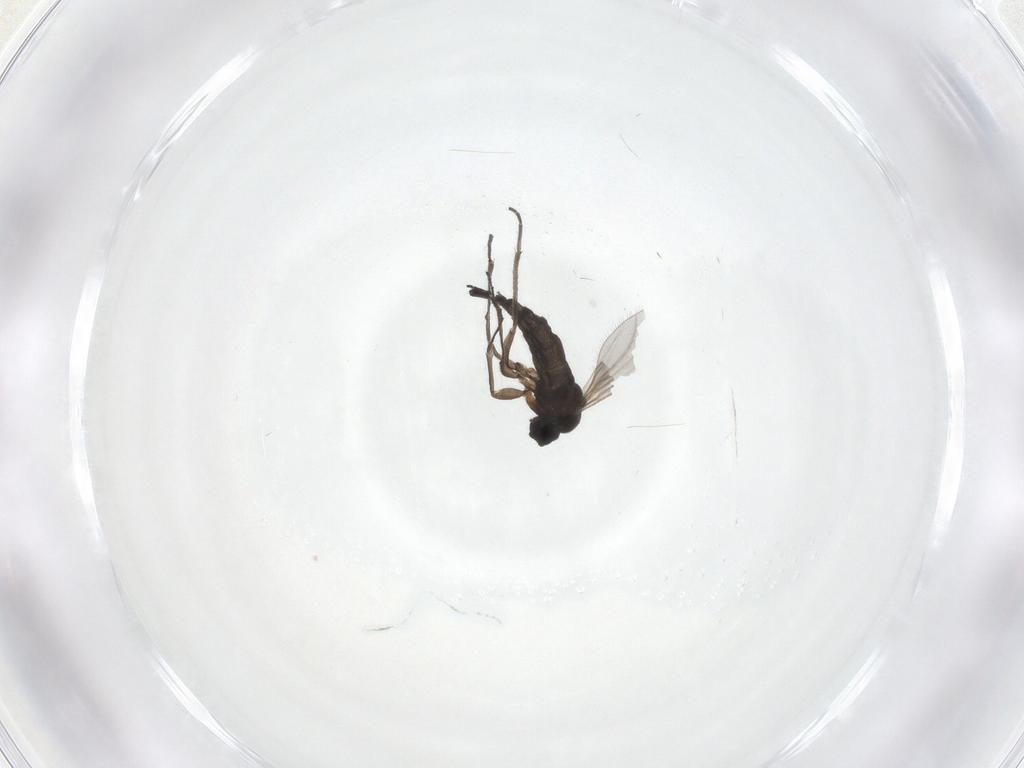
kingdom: Animalia
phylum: Arthropoda
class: Insecta
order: Diptera
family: Sciaridae
